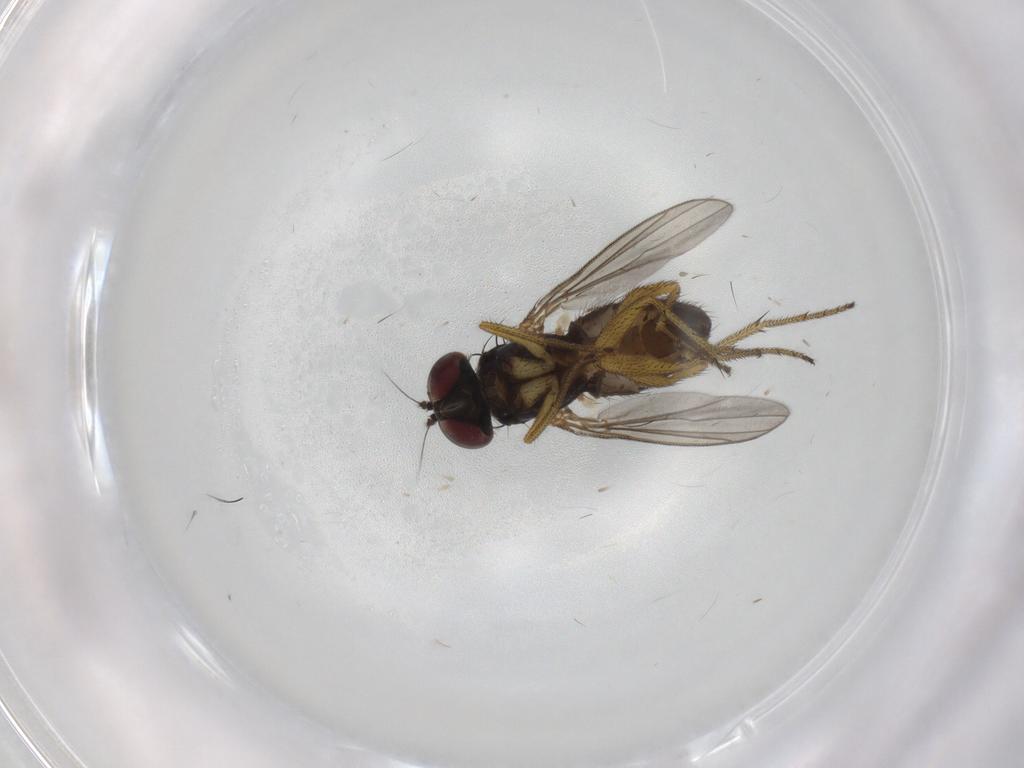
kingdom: Animalia
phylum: Arthropoda
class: Insecta
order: Diptera
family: Dolichopodidae
